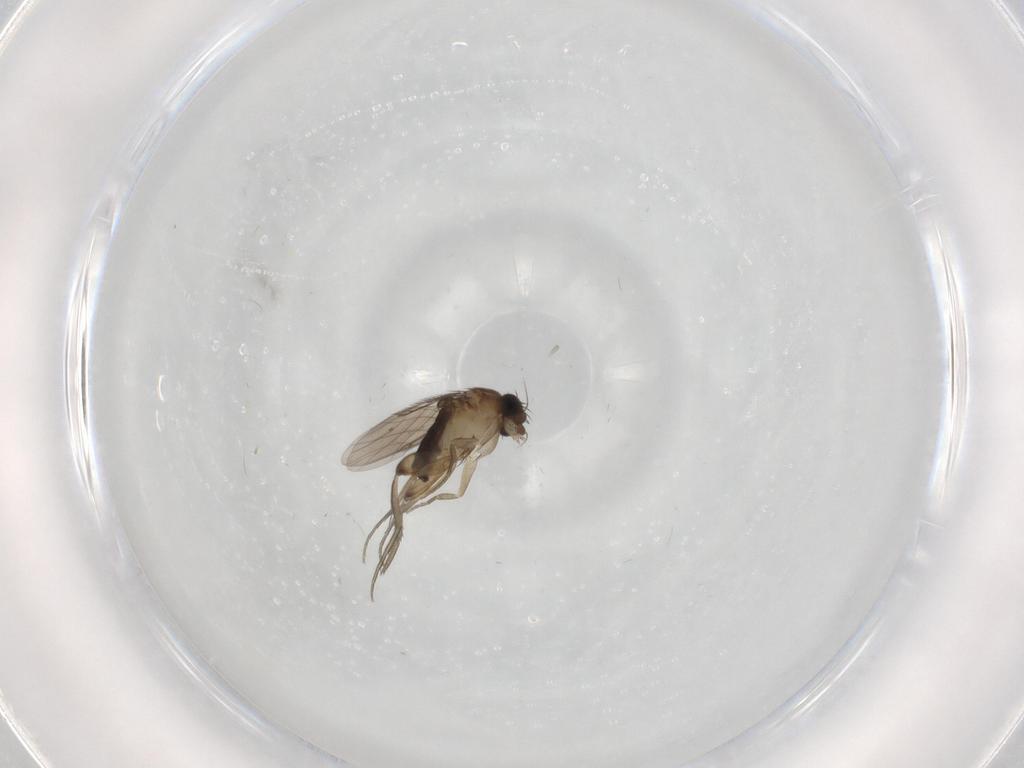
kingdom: Animalia
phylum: Arthropoda
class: Insecta
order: Diptera
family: Phoridae
